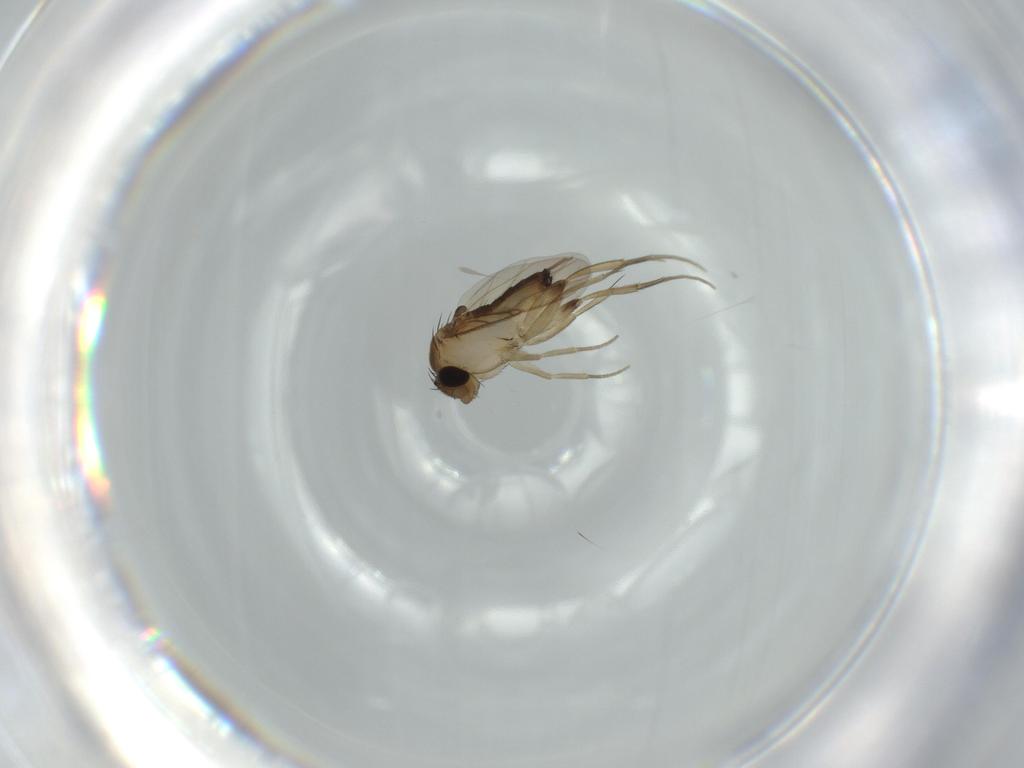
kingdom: Animalia
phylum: Arthropoda
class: Insecta
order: Diptera
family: Phoridae
